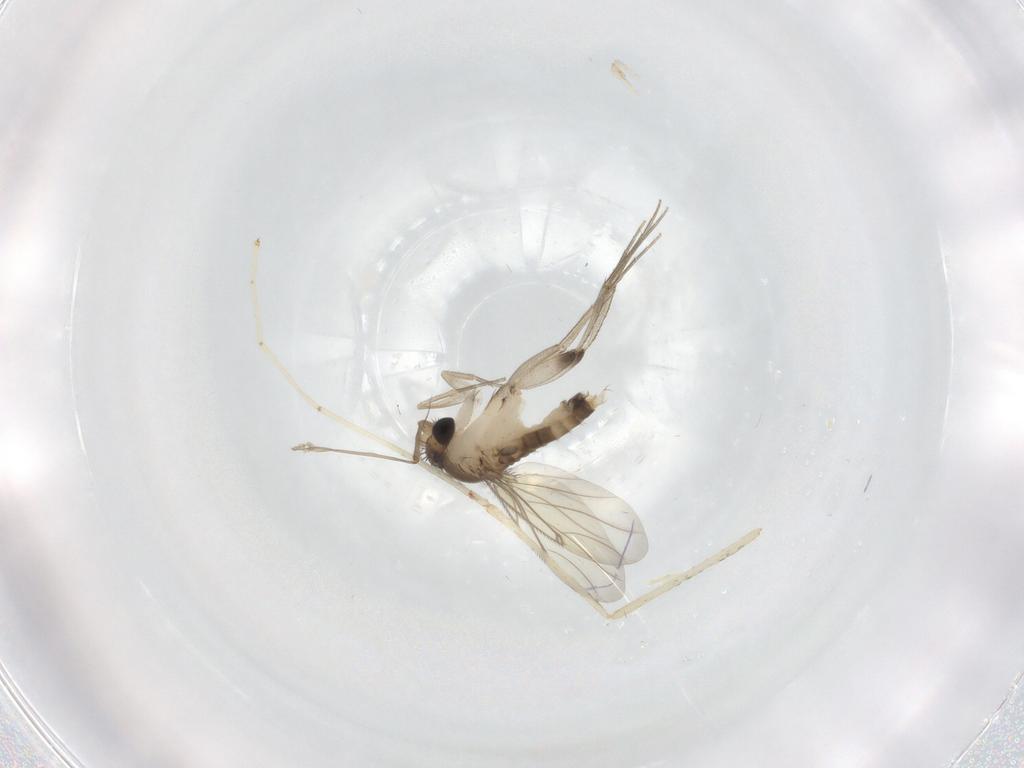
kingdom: Animalia
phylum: Arthropoda
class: Insecta
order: Diptera
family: Cecidomyiidae
